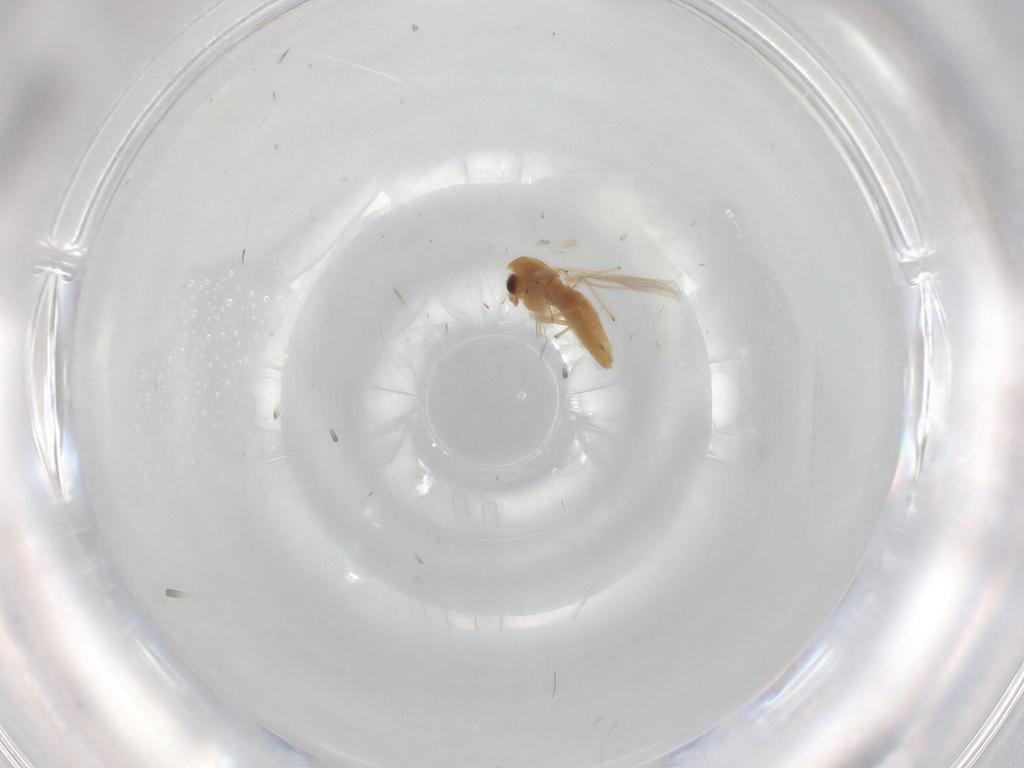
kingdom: Animalia
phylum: Arthropoda
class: Insecta
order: Diptera
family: Chironomidae
